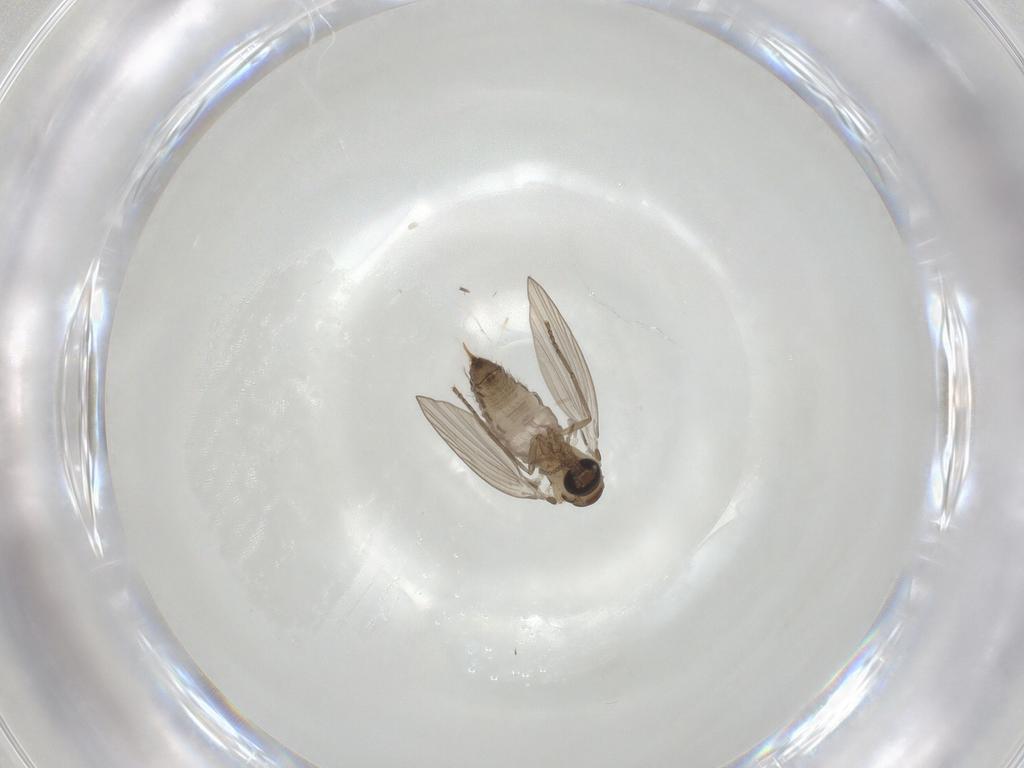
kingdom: Animalia
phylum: Arthropoda
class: Insecta
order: Diptera
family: Psychodidae
